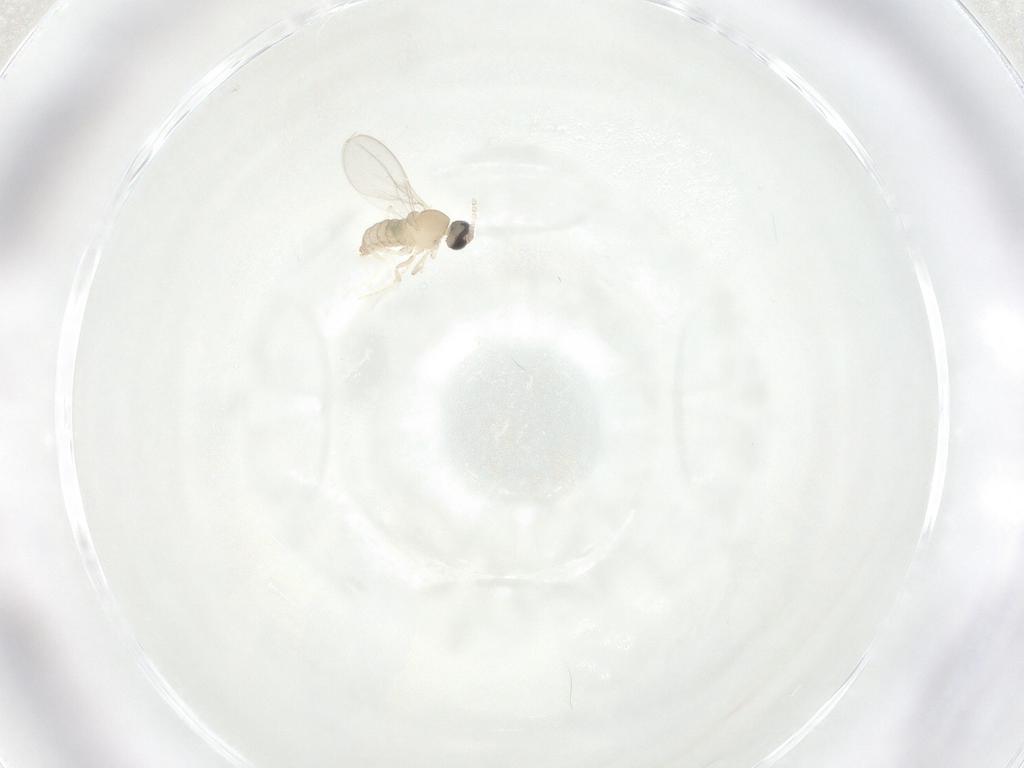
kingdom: Animalia
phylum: Arthropoda
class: Insecta
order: Diptera
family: Cecidomyiidae
